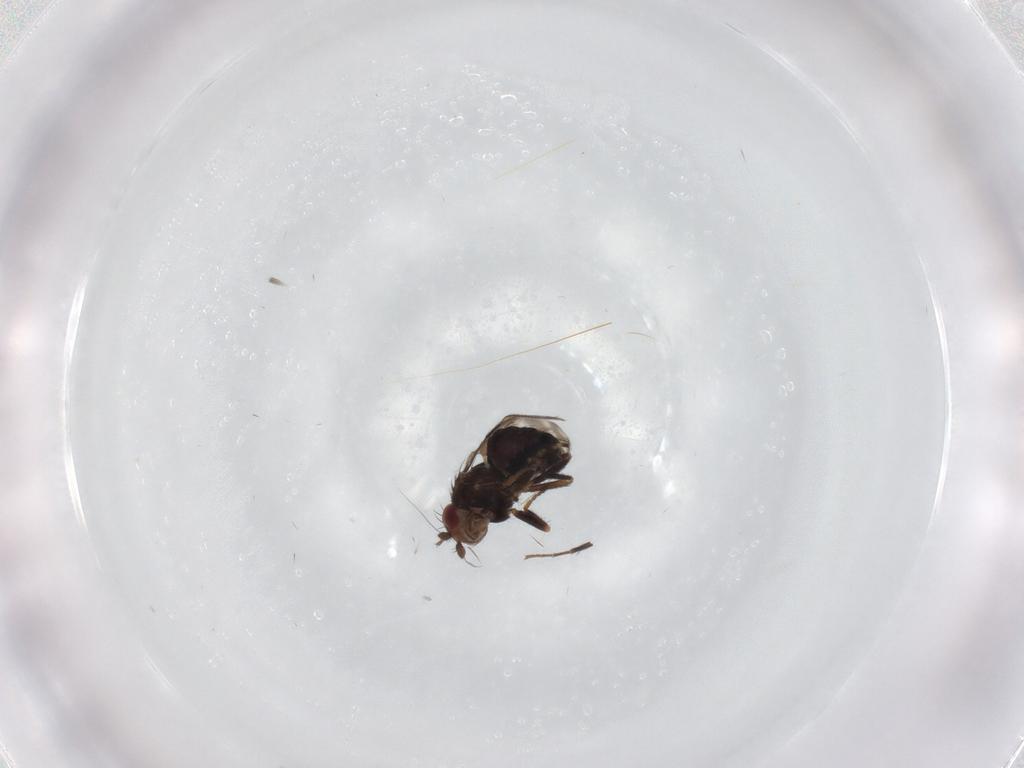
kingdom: Animalia
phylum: Arthropoda
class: Insecta
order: Diptera
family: Sphaeroceridae
